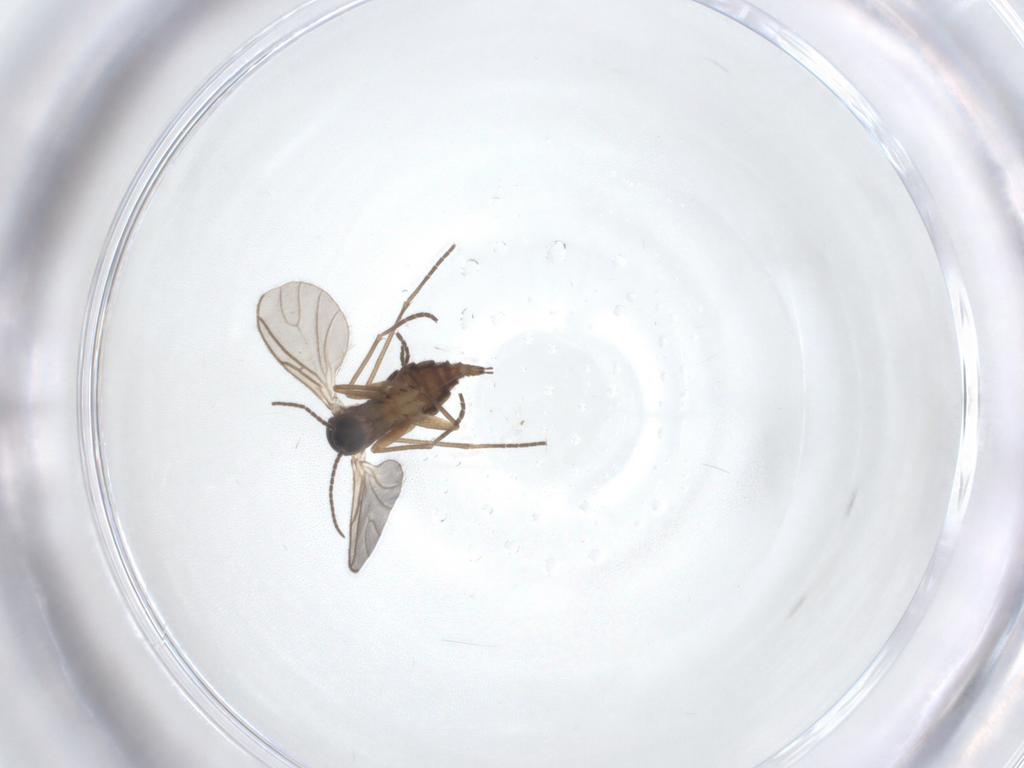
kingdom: Animalia
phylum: Arthropoda
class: Insecta
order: Diptera
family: Sciaridae
